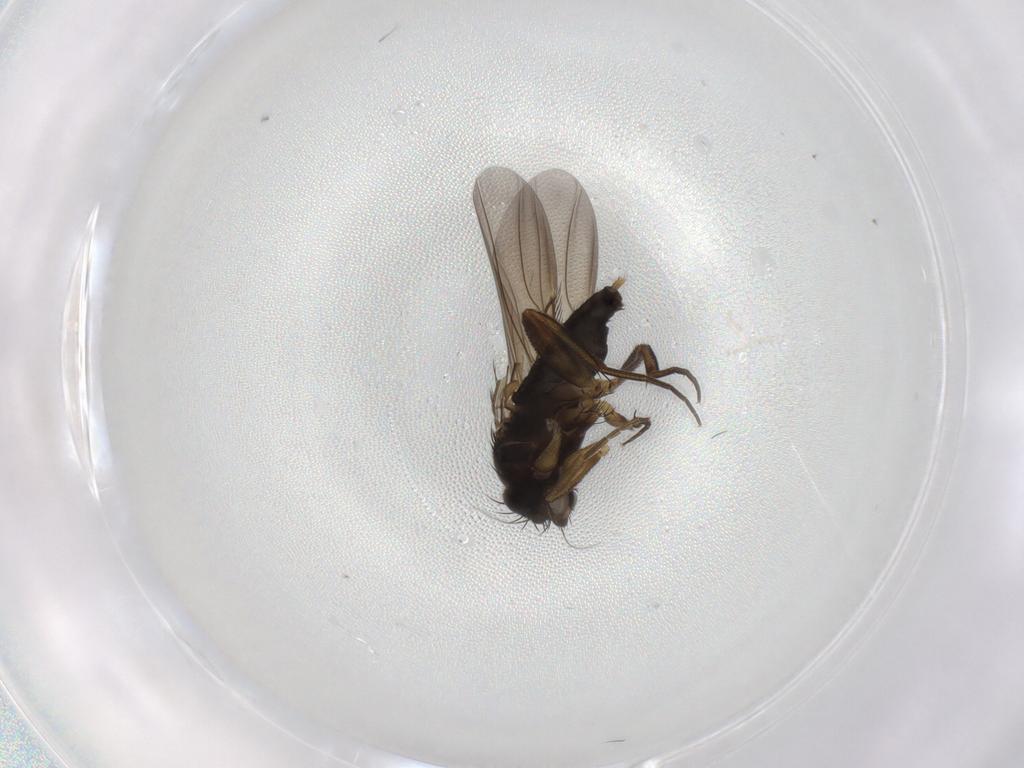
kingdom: Animalia
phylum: Arthropoda
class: Insecta
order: Diptera
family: Phoridae
